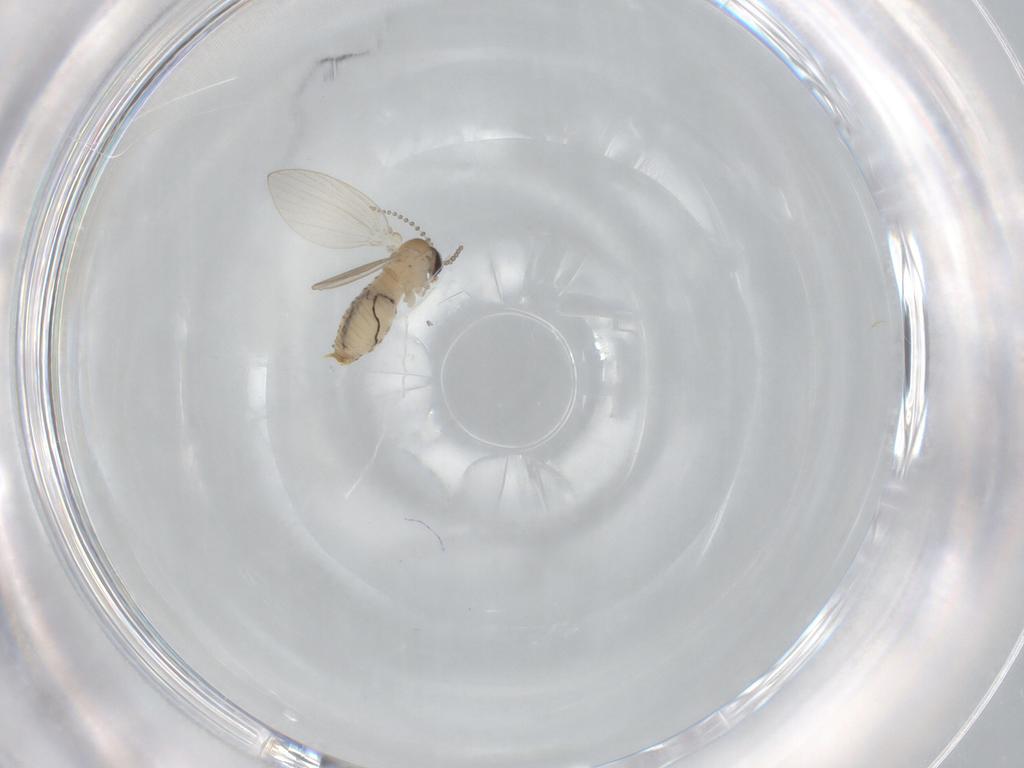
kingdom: Animalia
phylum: Arthropoda
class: Insecta
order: Diptera
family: Psychodidae
